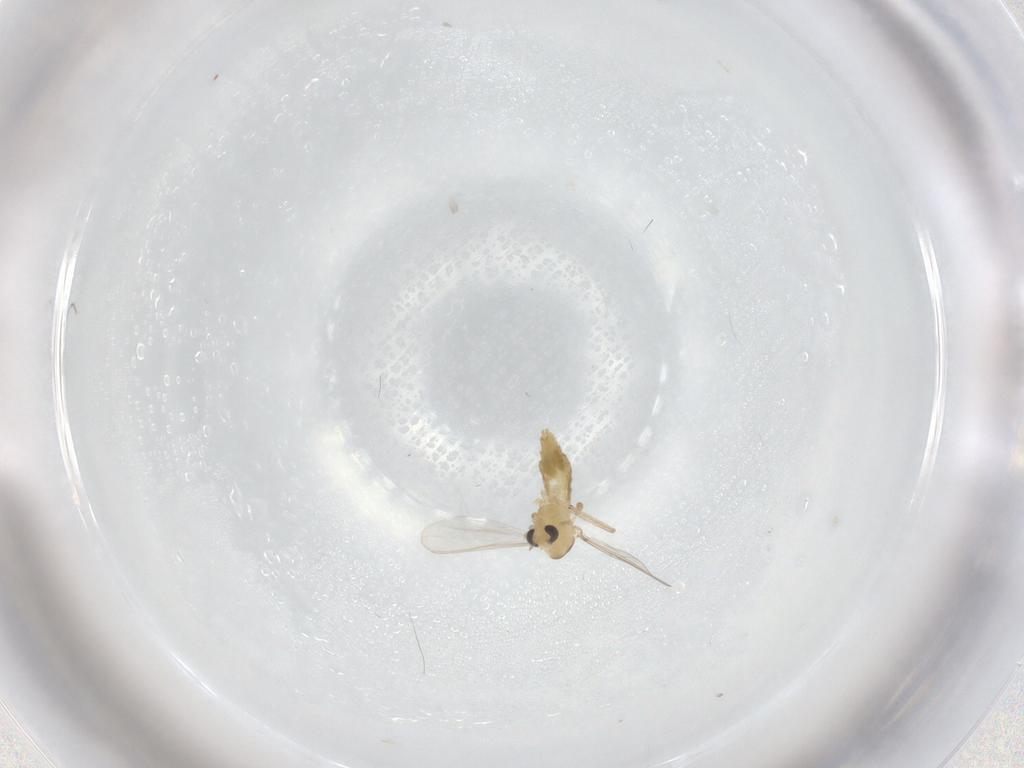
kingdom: Animalia
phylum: Arthropoda
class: Insecta
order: Diptera
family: Chironomidae
